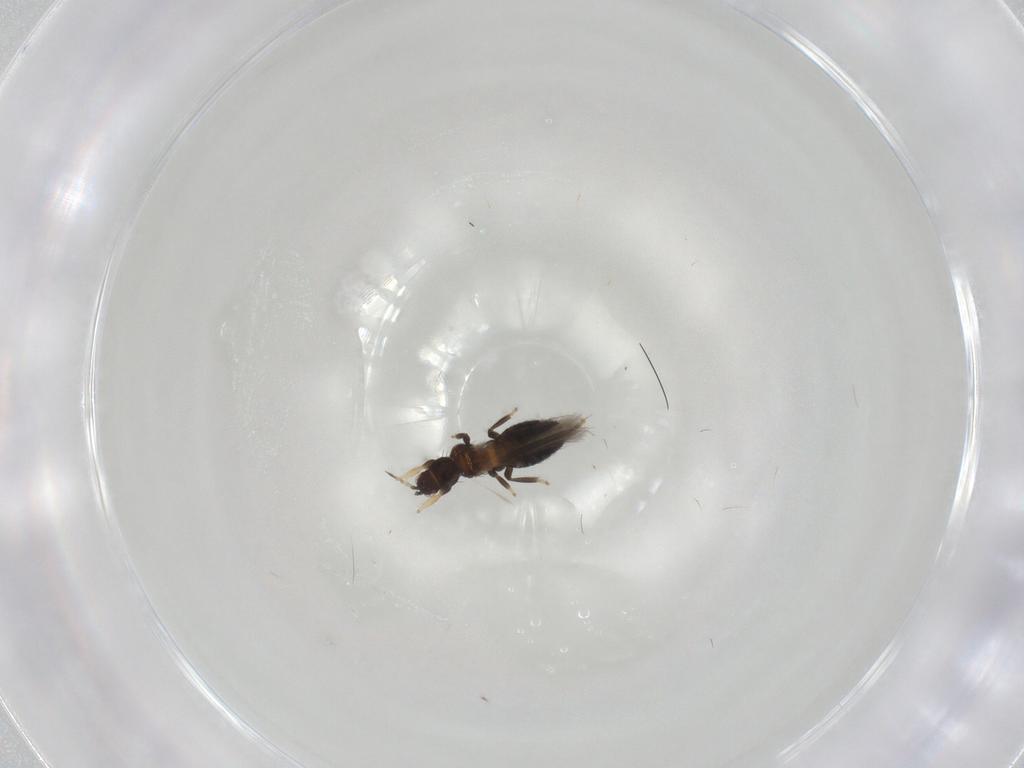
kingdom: Animalia
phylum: Arthropoda
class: Insecta
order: Thysanoptera
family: Thripidae
